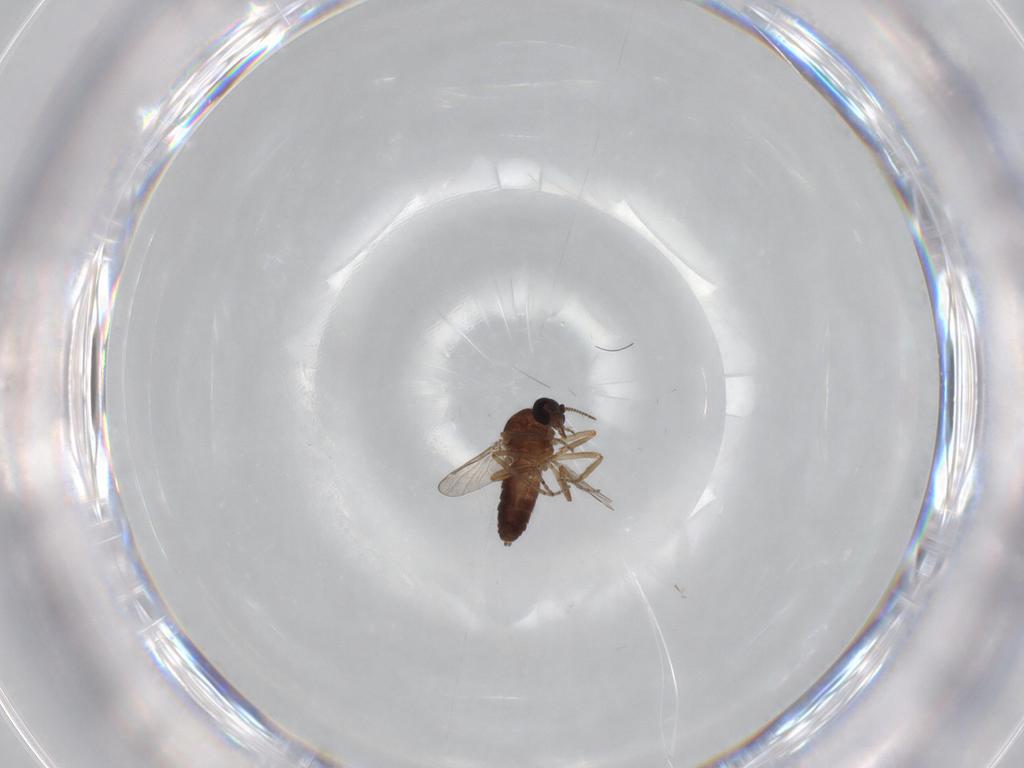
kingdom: Animalia
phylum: Arthropoda
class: Insecta
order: Diptera
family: Ceratopogonidae
